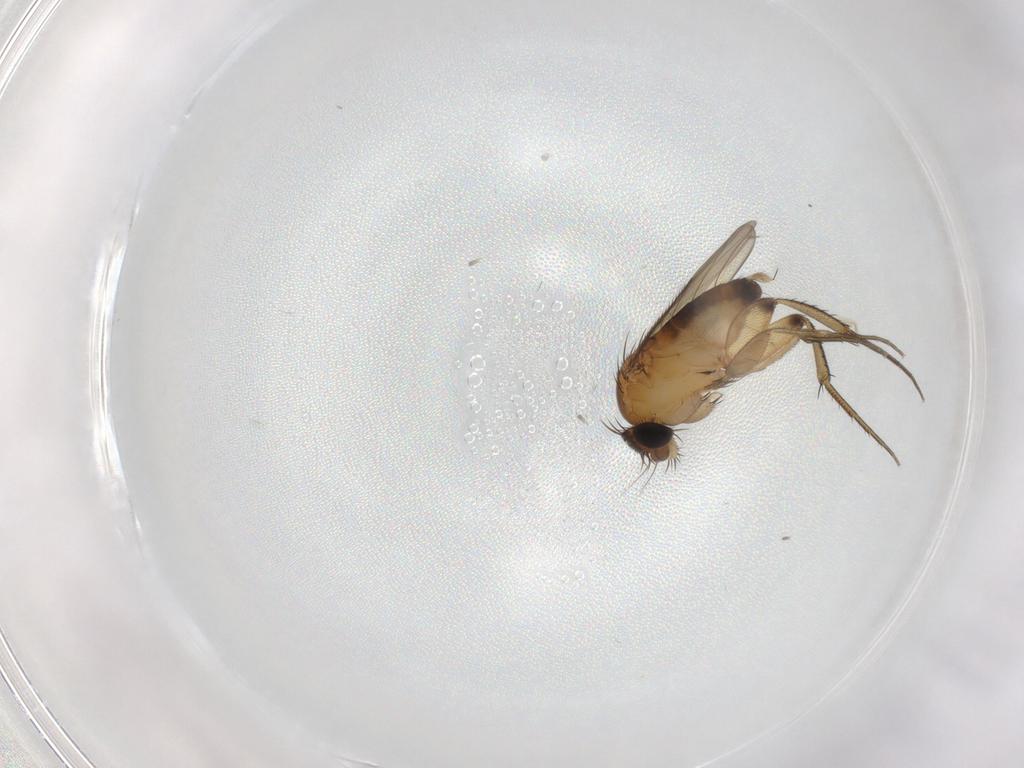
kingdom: Animalia
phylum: Arthropoda
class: Insecta
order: Diptera
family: Phoridae
